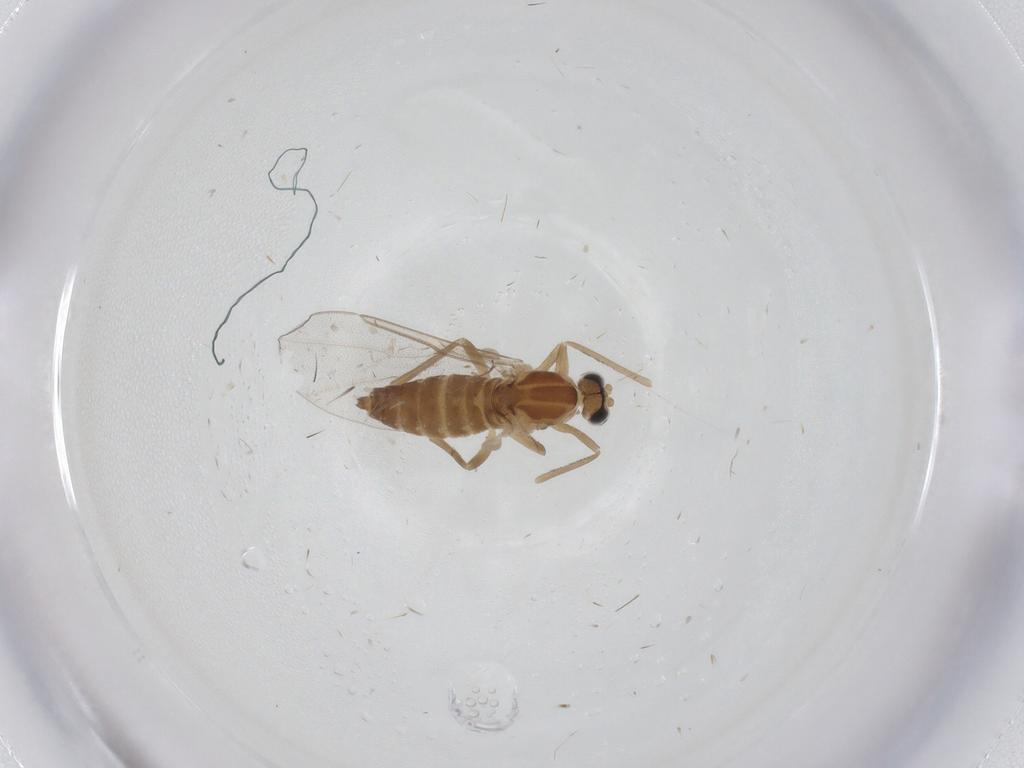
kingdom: Animalia
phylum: Arthropoda
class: Insecta
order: Diptera
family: Cecidomyiidae
